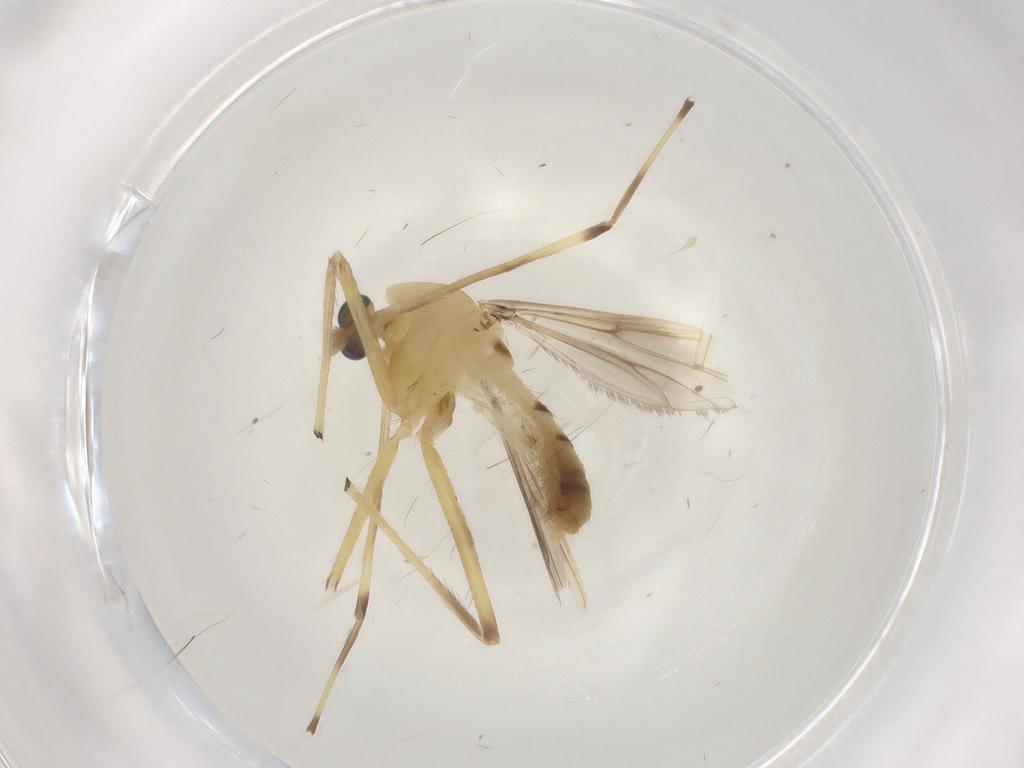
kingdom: Animalia
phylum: Arthropoda
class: Insecta
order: Diptera
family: Chironomidae
